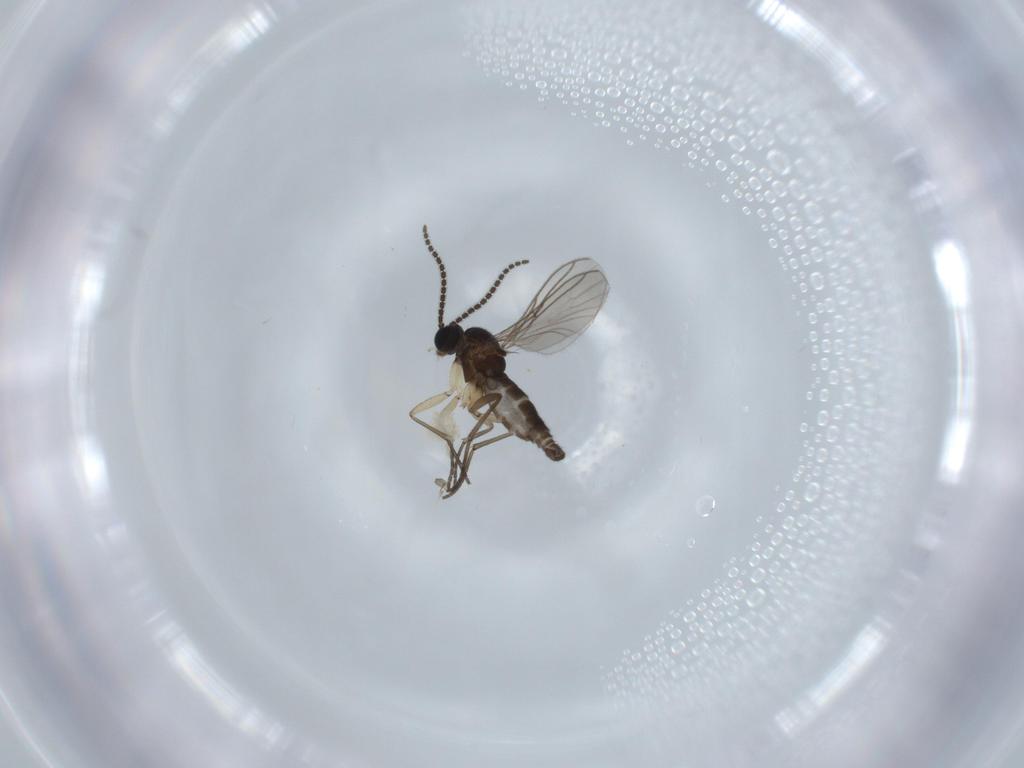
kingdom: Animalia
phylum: Arthropoda
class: Insecta
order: Diptera
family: Sciaridae
